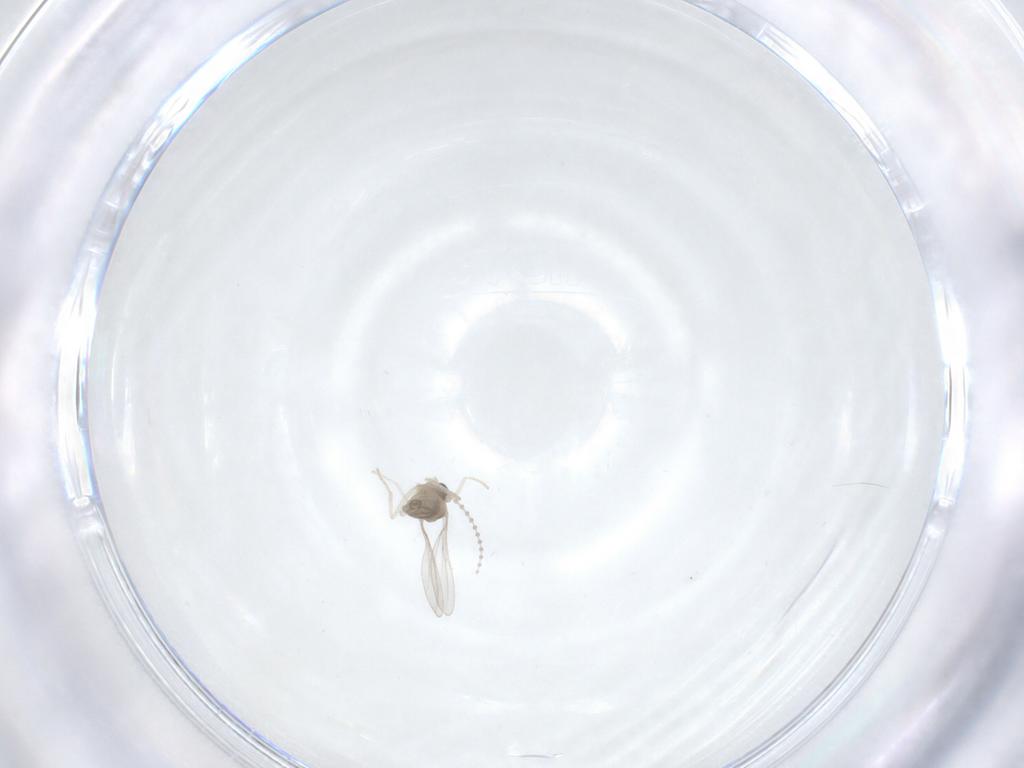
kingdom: Animalia
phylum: Arthropoda
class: Insecta
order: Diptera
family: Cecidomyiidae
